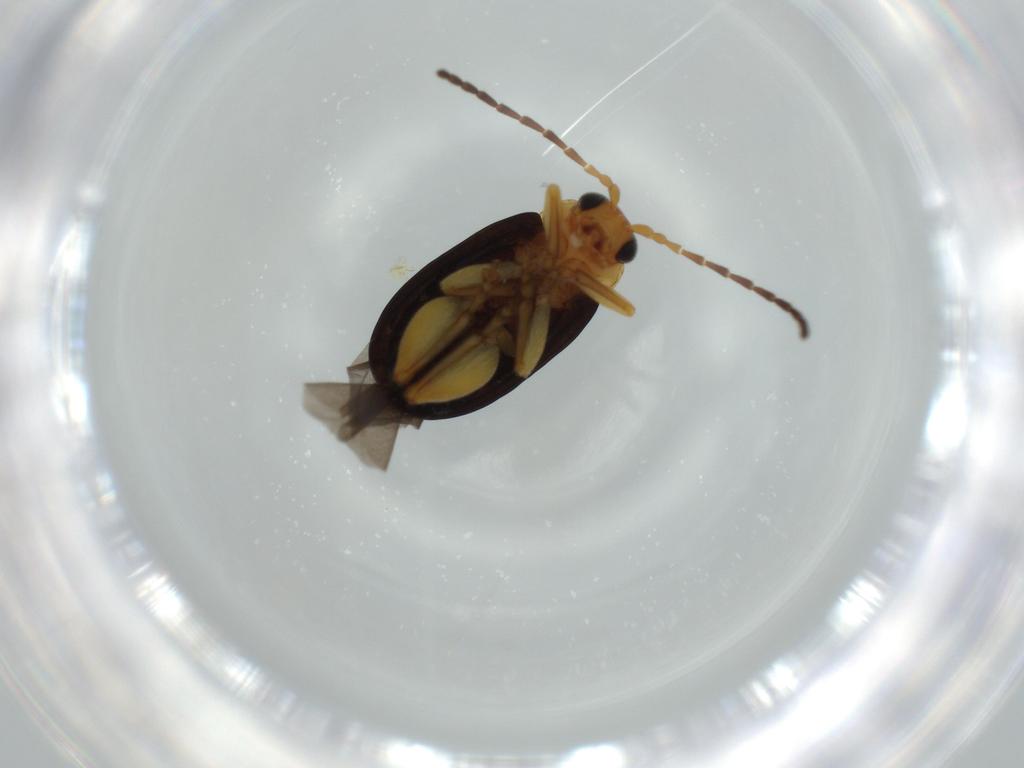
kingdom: Animalia
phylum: Arthropoda
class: Insecta
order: Coleoptera
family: Chrysomelidae
